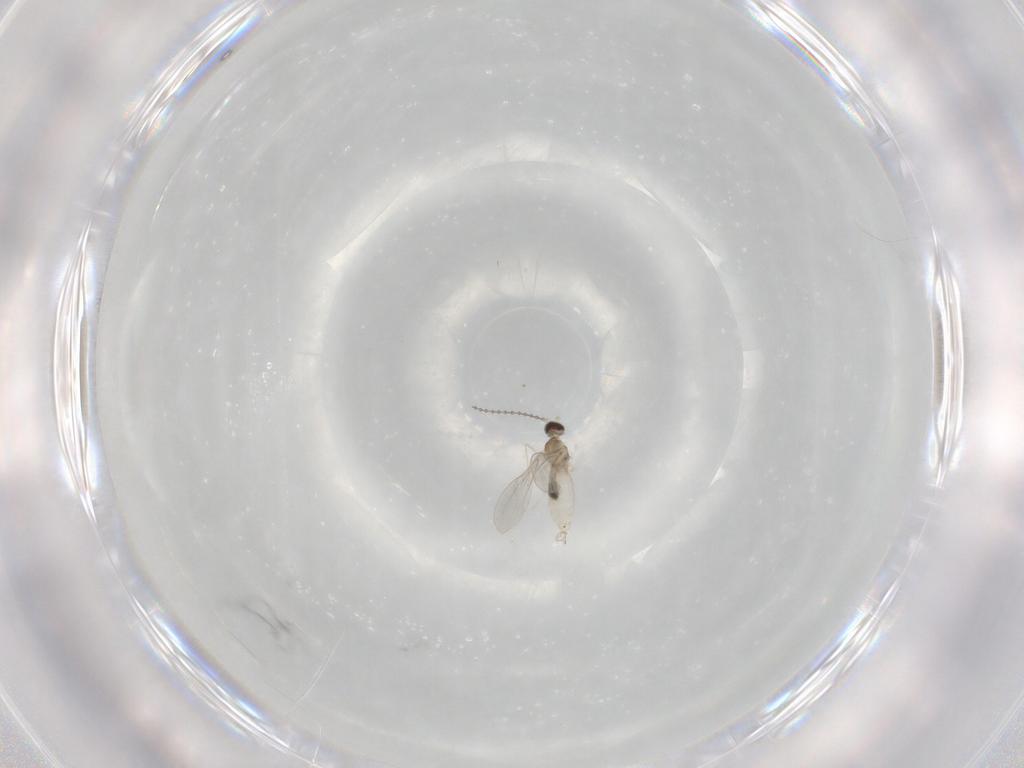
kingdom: Animalia
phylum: Arthropoda
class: Insecta
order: Diptera
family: Cecidomyiidae
